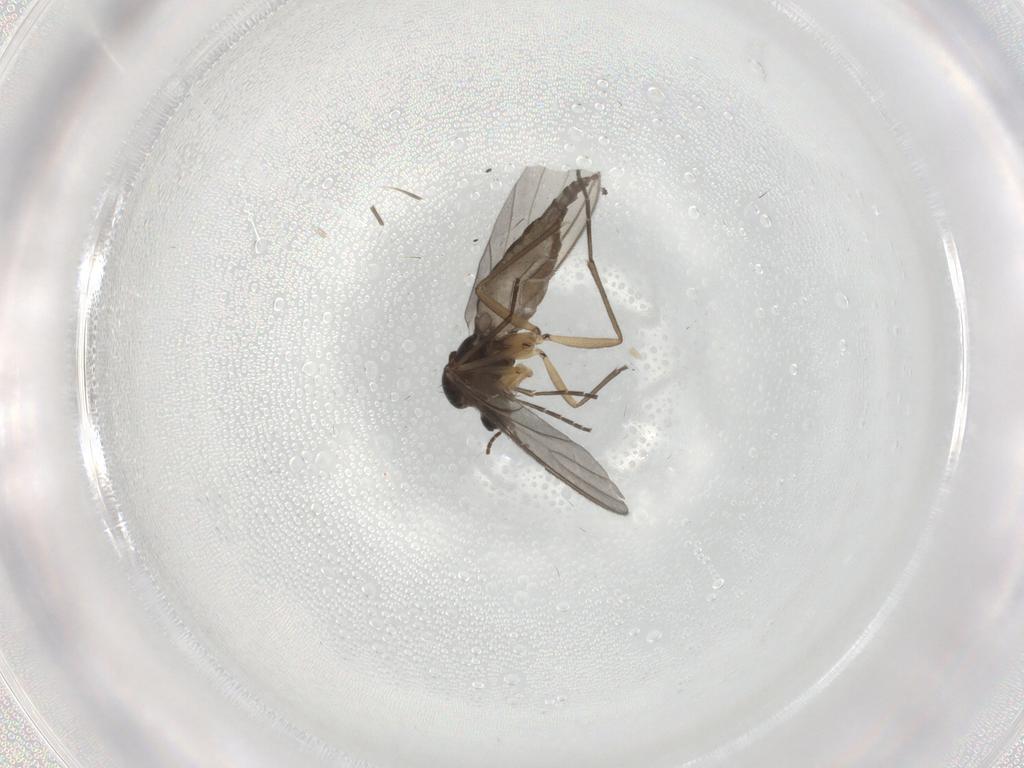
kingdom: Animalia
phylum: Arthropoda
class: Insecta
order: Diptera
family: Sciaridae
